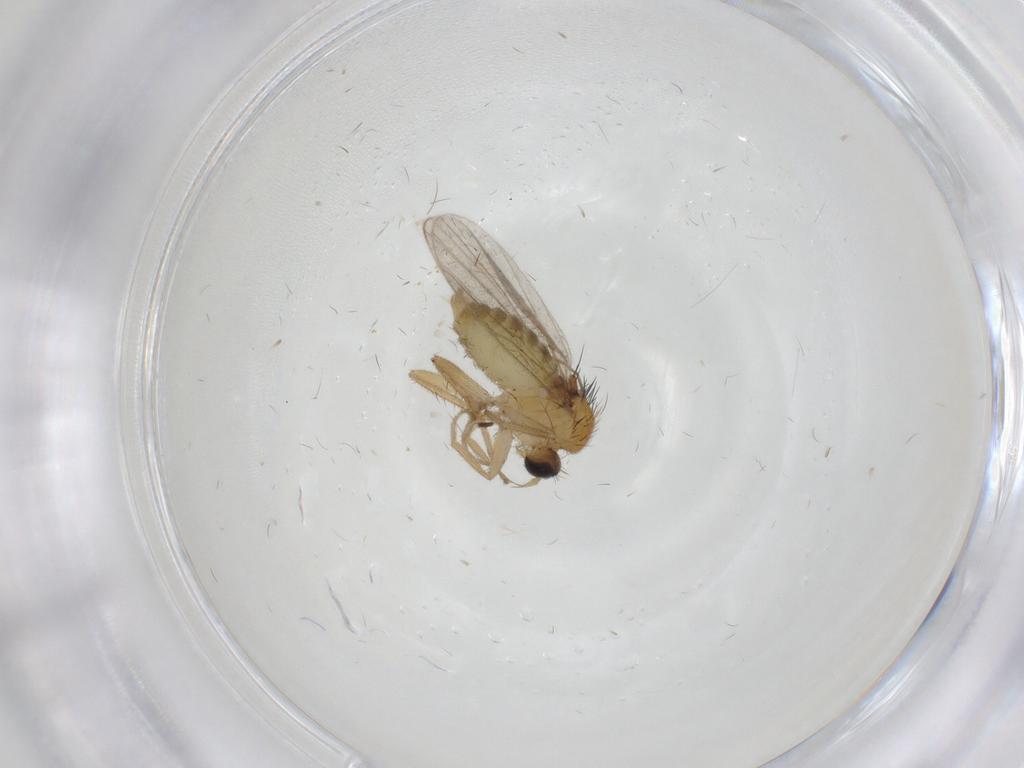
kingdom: Animalia
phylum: Arthropoda
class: Insecta
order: Diptera
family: Hybotidae
